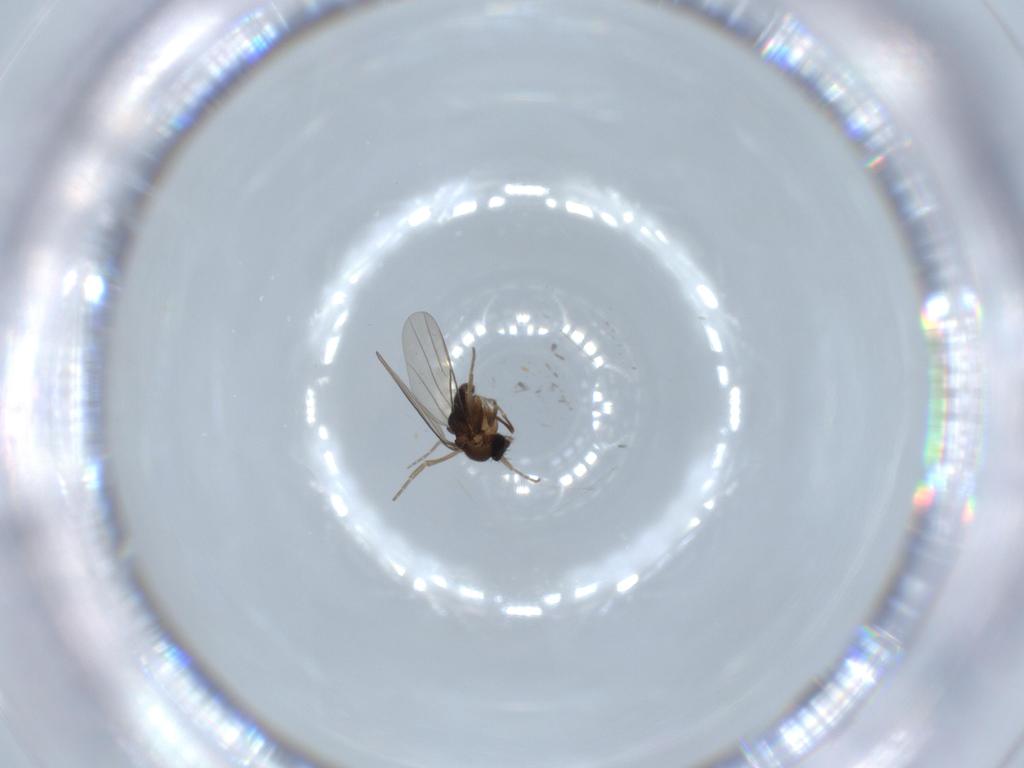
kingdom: Animalia
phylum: Arthropoda
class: Insecta
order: Diptera
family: Phoridae
